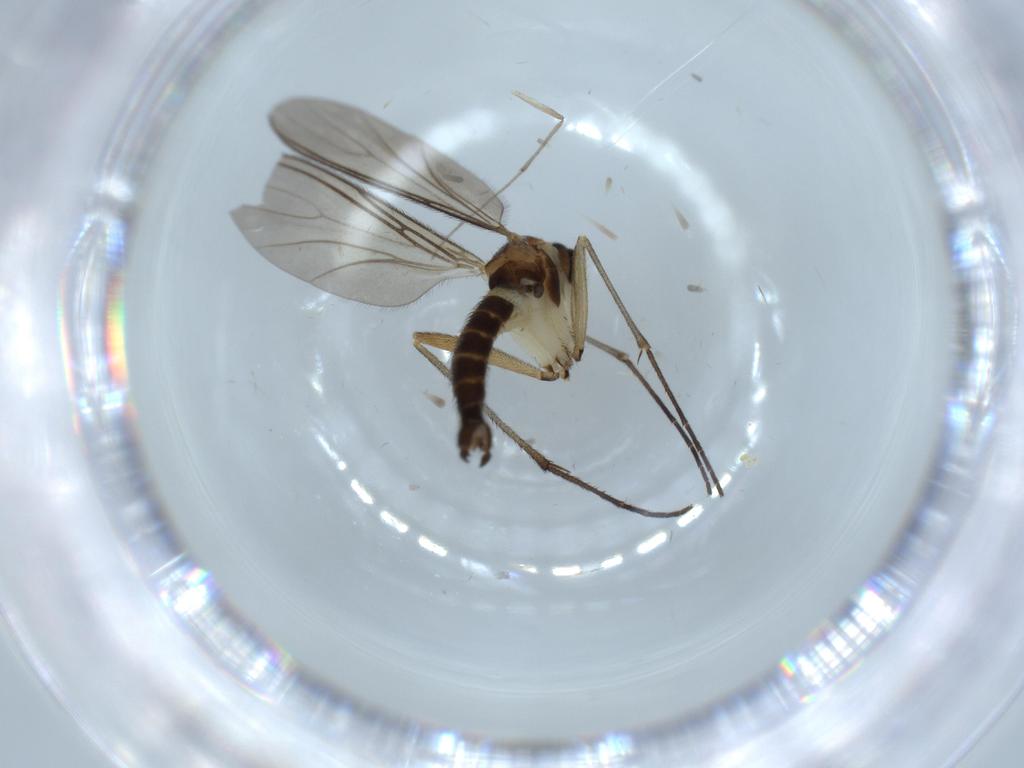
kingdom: Animalia
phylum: Arthropoda
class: Insecta
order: Diptera
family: Sciaridae
